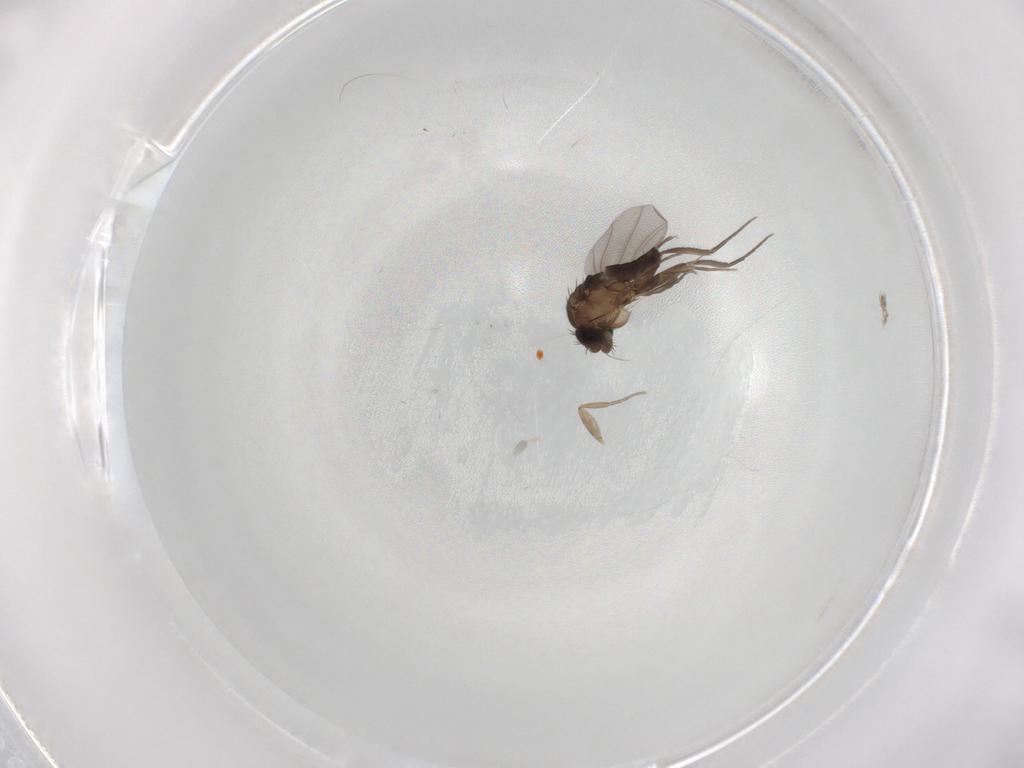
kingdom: Animalia
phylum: Arthropoda
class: Insecta
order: Diptera
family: Phoridae
